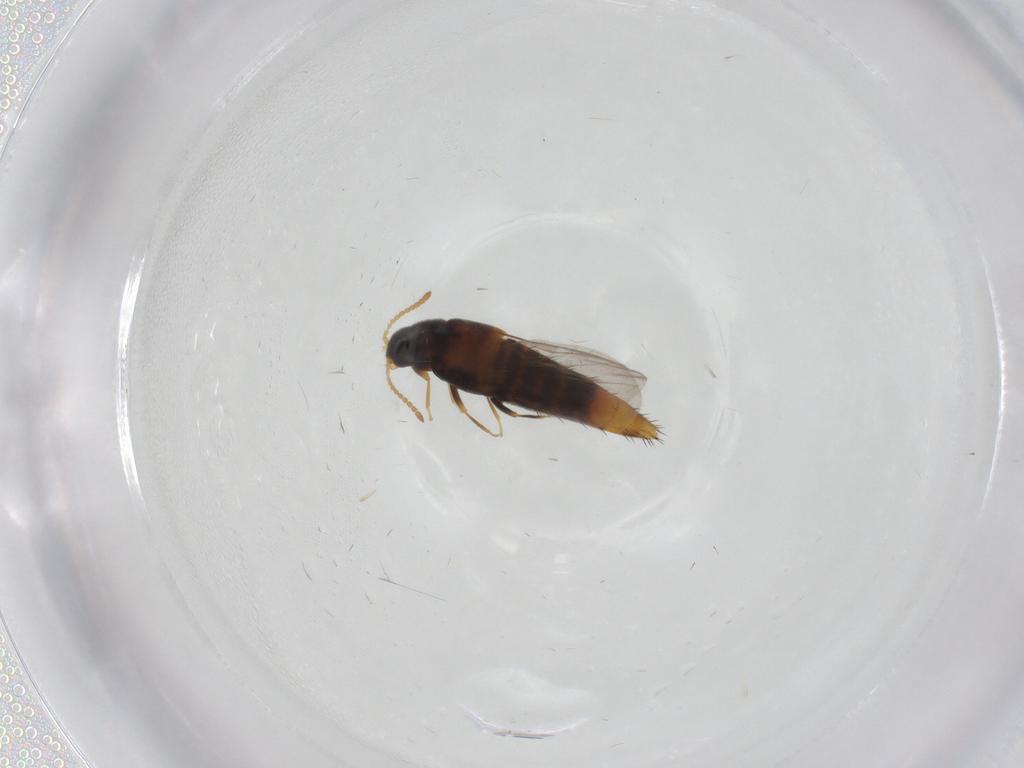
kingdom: Animalia
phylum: Arthropoda
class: Insecta
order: Coleoptera
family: Staphylinidae
